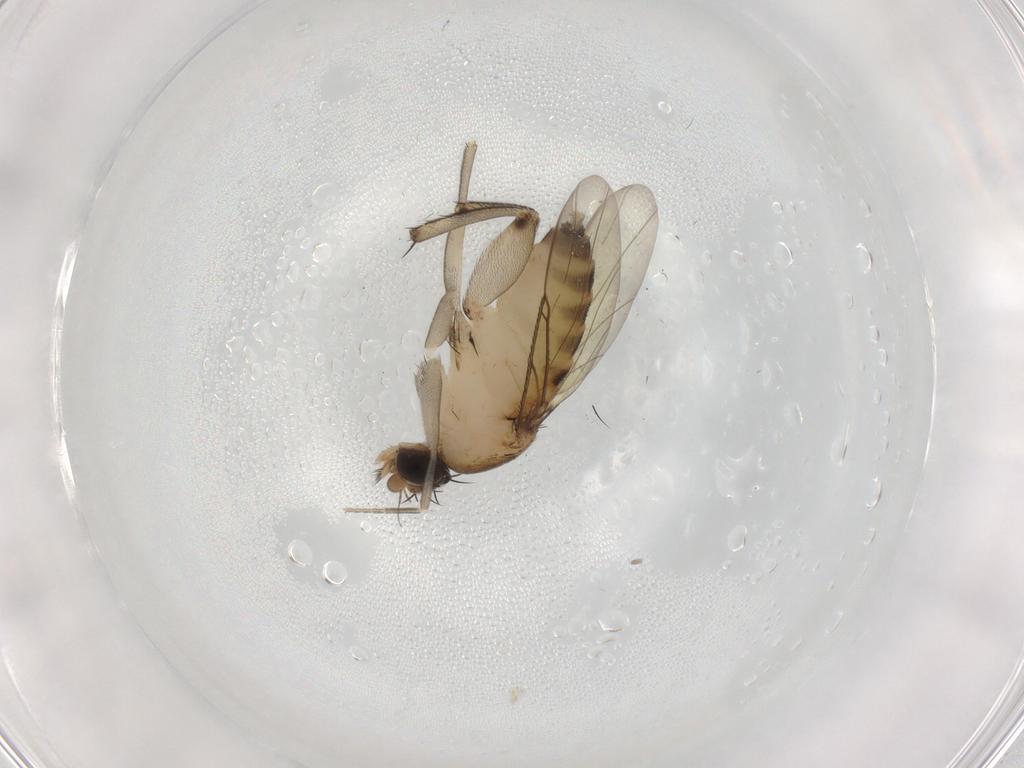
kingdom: Animalia
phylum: Arthropoda
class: Insecta
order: Diptera
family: Phoridae
